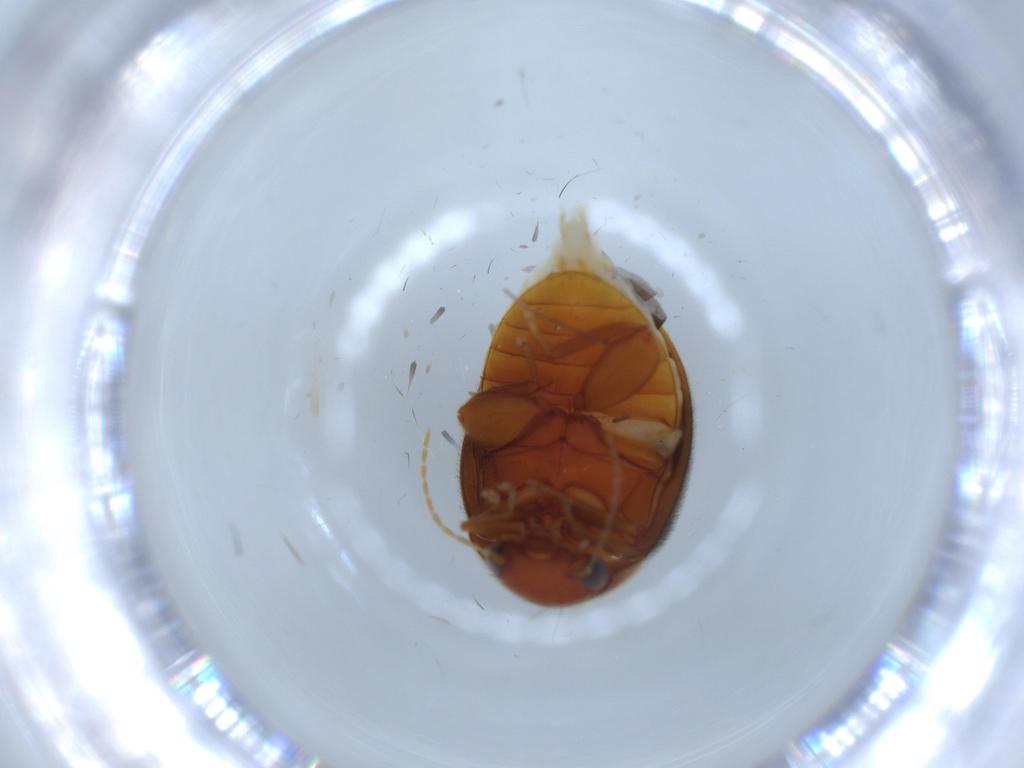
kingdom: Animalia
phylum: Arthropoda
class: Insecta
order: Coleoptera
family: Scirtidae
